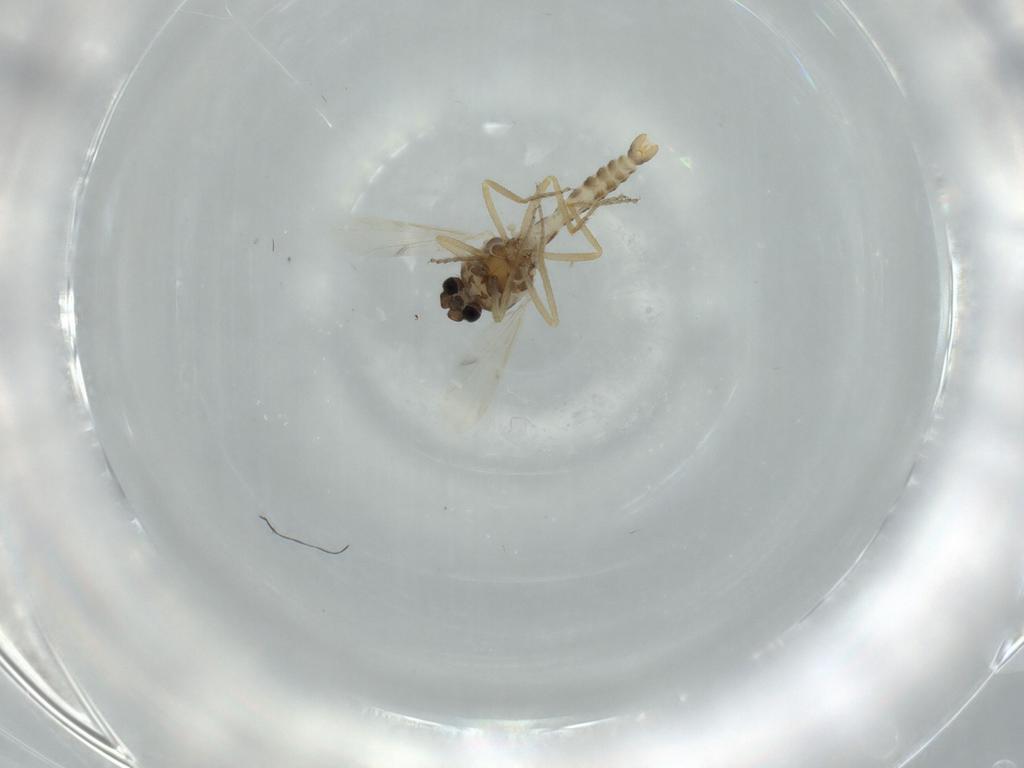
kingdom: Animalia
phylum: Arthropoda
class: Insecta
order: Diptera
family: Ceratopogonidae
